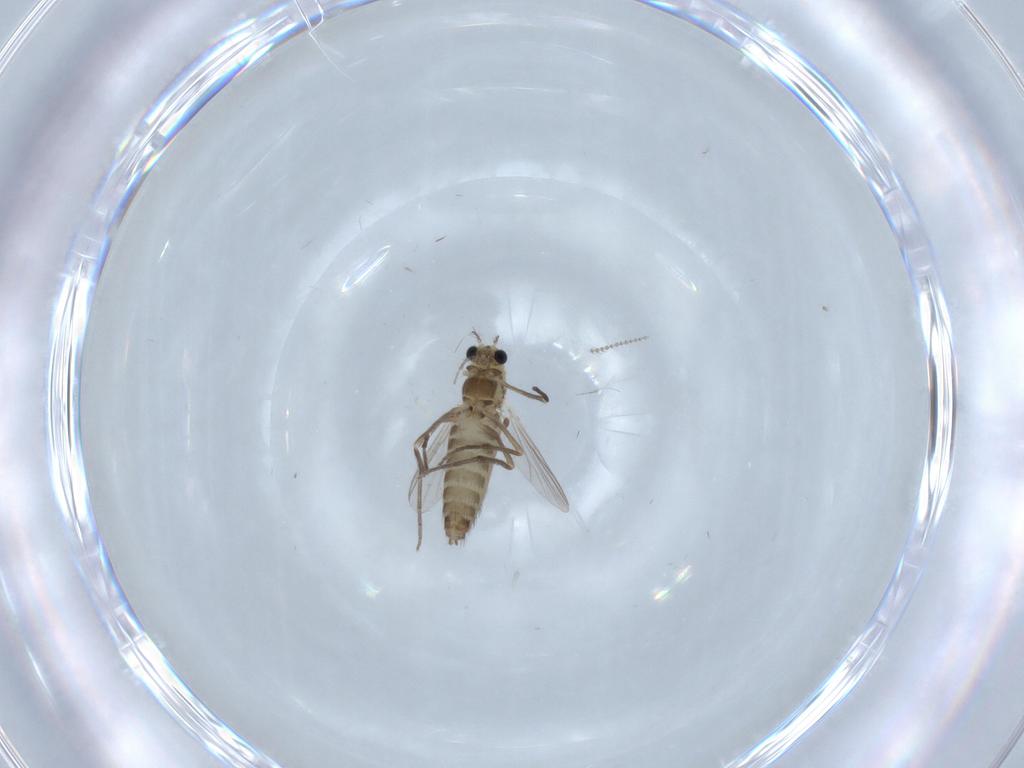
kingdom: Animalia
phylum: Arthropoda
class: Insecta
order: Diptera
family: Chironomidae
